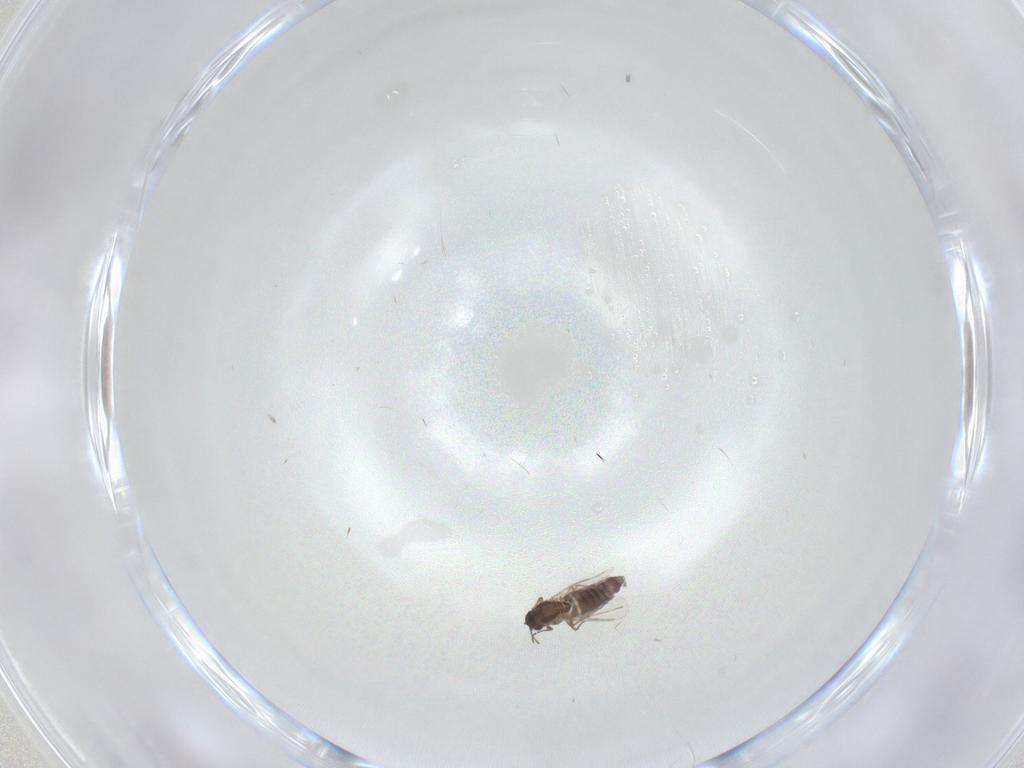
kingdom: Animalia
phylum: Arthropoda
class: Insecta
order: Diptera
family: Chironomidae
